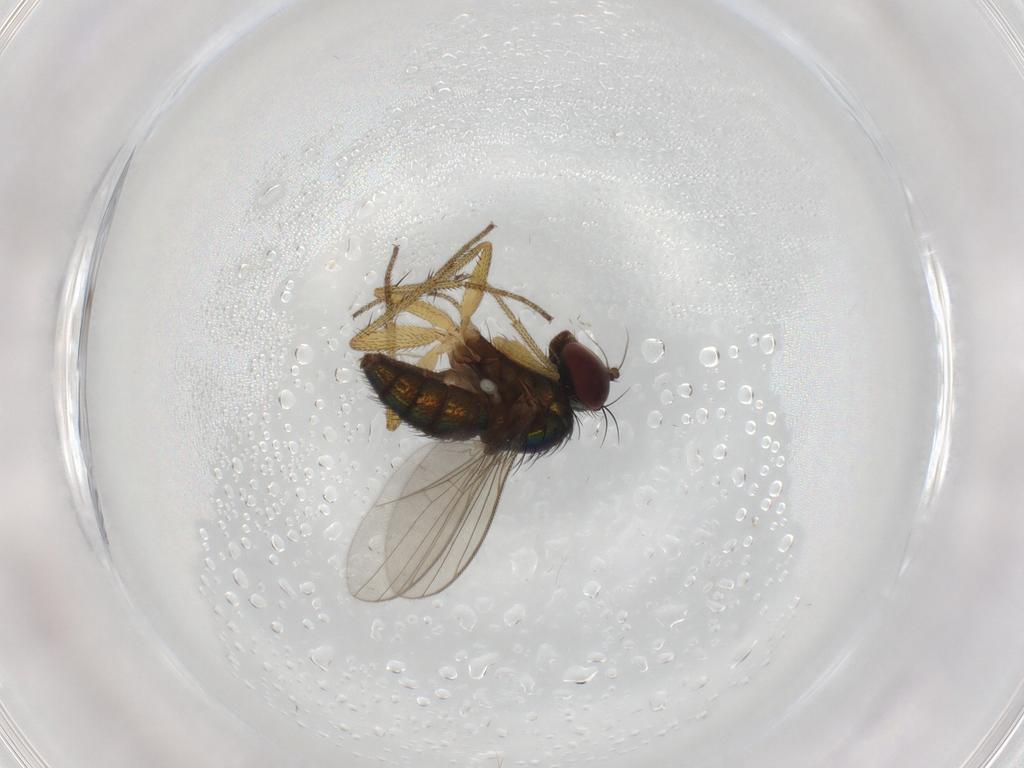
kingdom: Animalia
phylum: Arthropoda
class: Insecta
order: Diptera
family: Dolichopodidae
